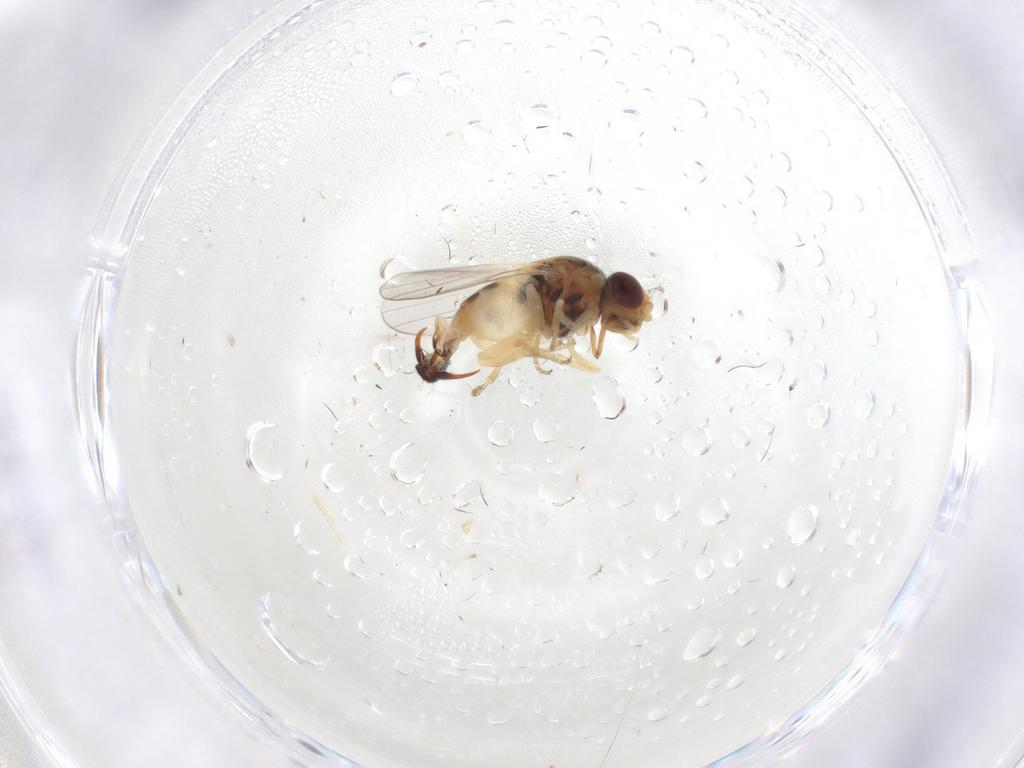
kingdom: Animalia
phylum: Arthropoda
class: Insecta
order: Diptera
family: Chloropidae
